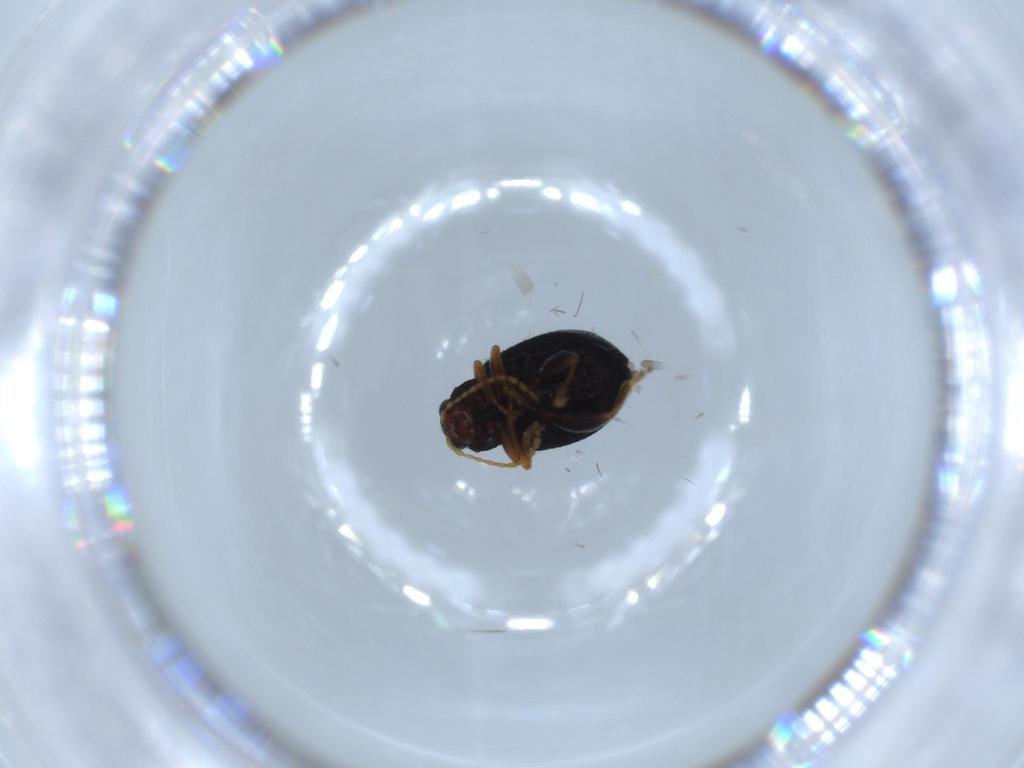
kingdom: Animalia
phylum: Arthropoda
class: Insecta
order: Coleoptera
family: Chrysomelidae
